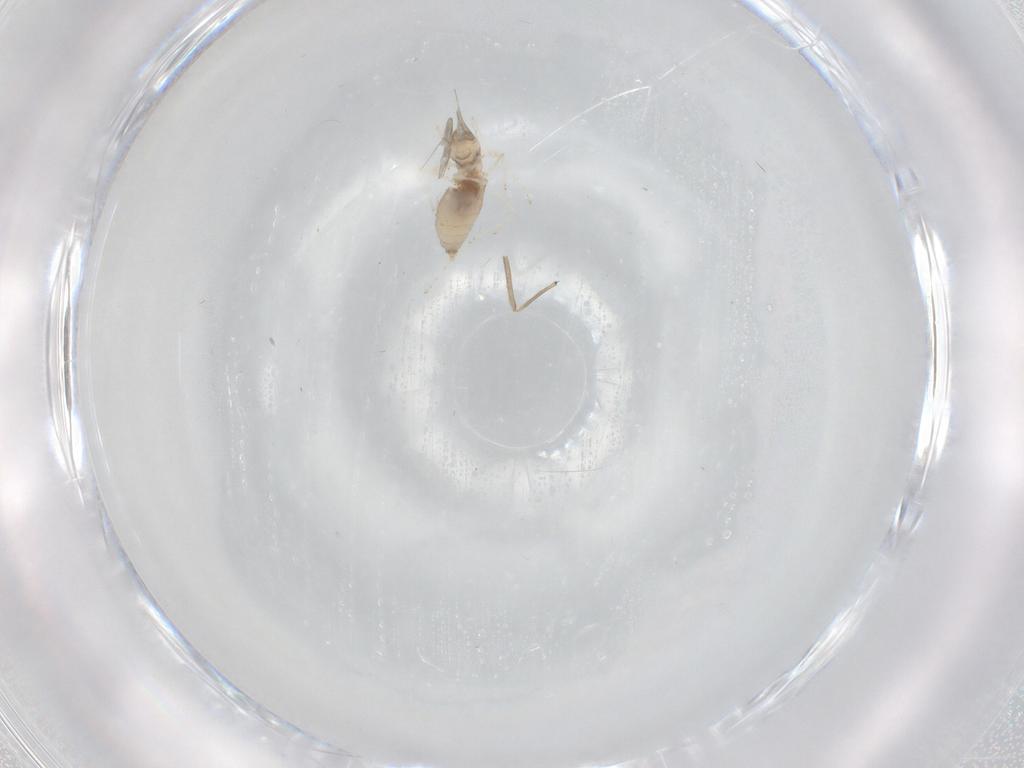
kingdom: Animalia
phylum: Arthropoda
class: Insecta
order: Diptera
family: Cecidomyiidae
